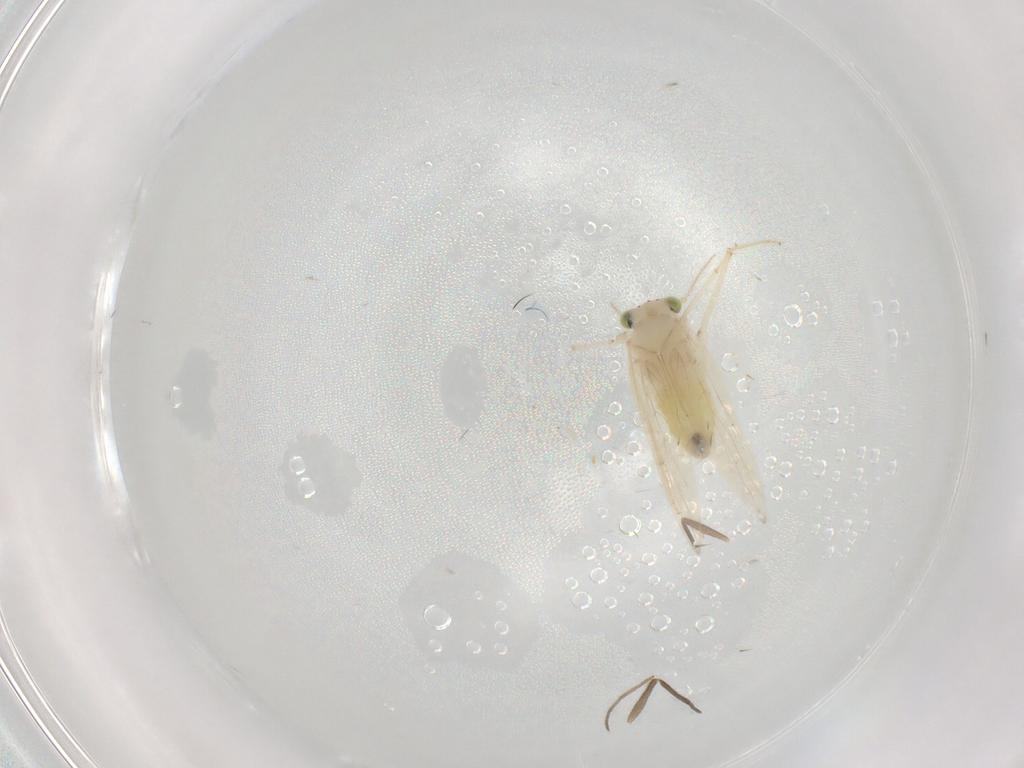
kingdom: Animalia
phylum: Arthropoda
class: Insecta
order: Psocodea
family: Lepidopsocidae
